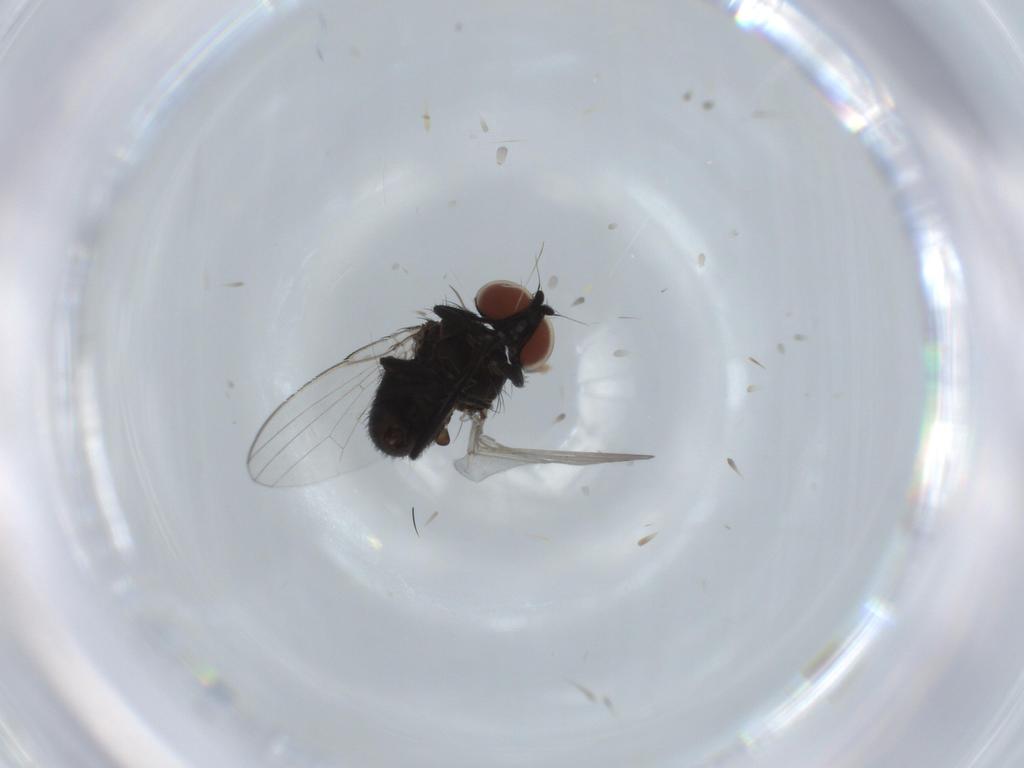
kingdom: Animalia
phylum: Arthropoda
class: Insecta
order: Diptera
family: Milichiidae
